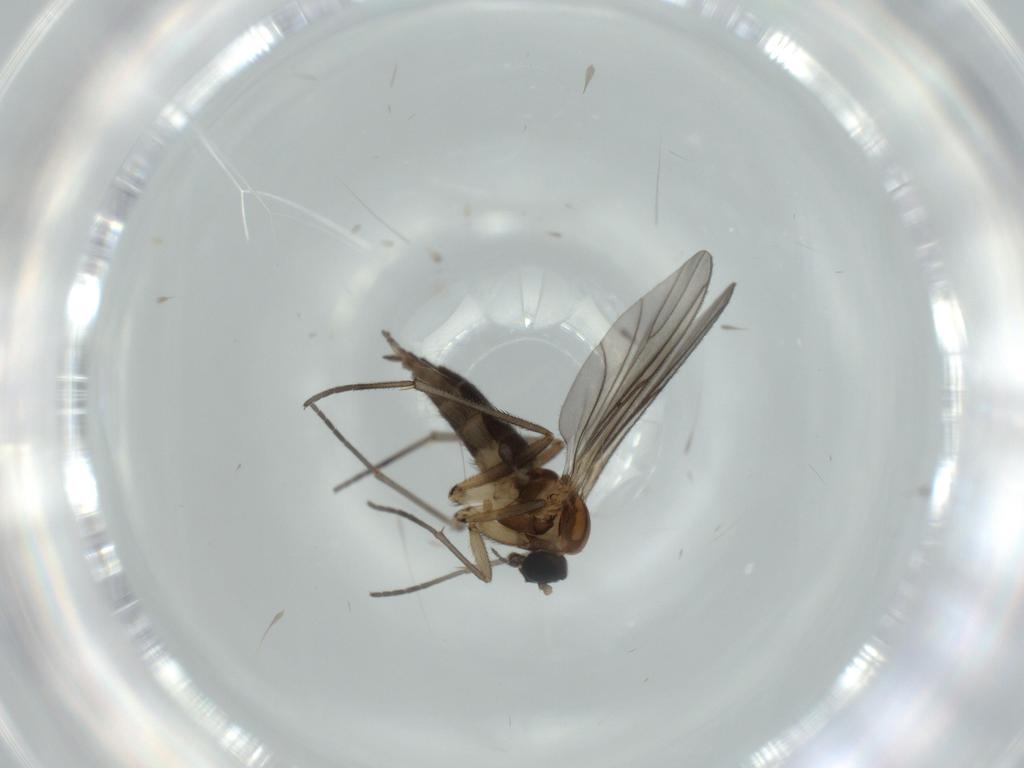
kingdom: Animalia
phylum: Arthropoda
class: Insecta
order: Diptera
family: Sciaridae
